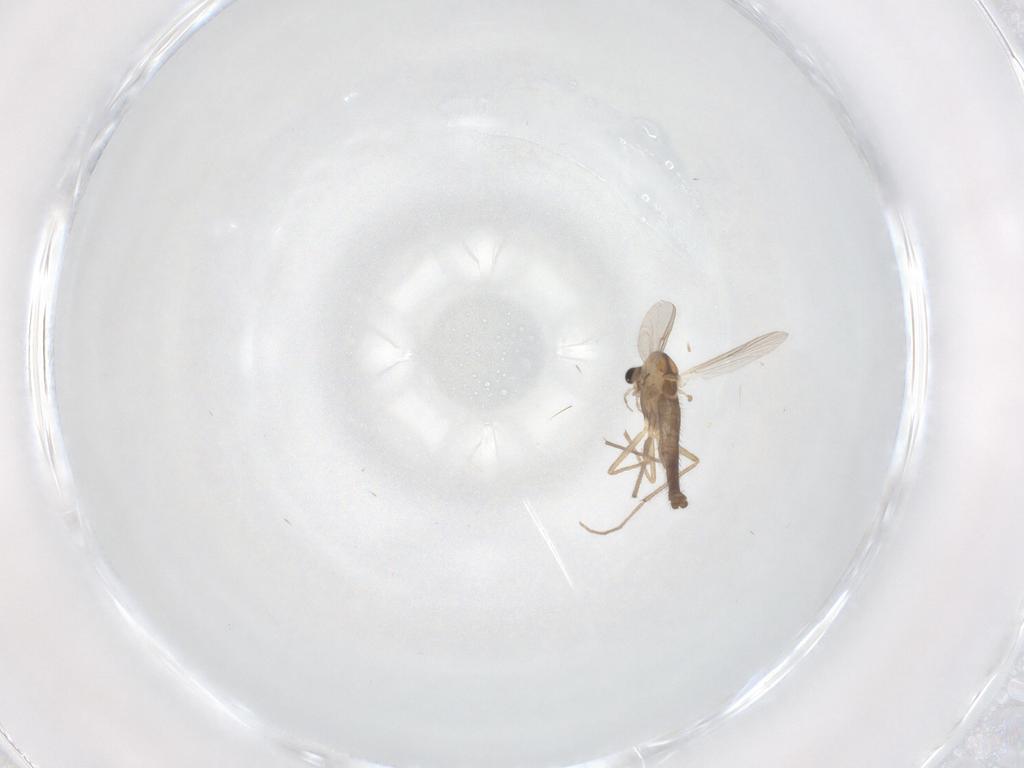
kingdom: Animalia
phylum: Arthropoda
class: Insecta
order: Diptera
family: Chironomidae
